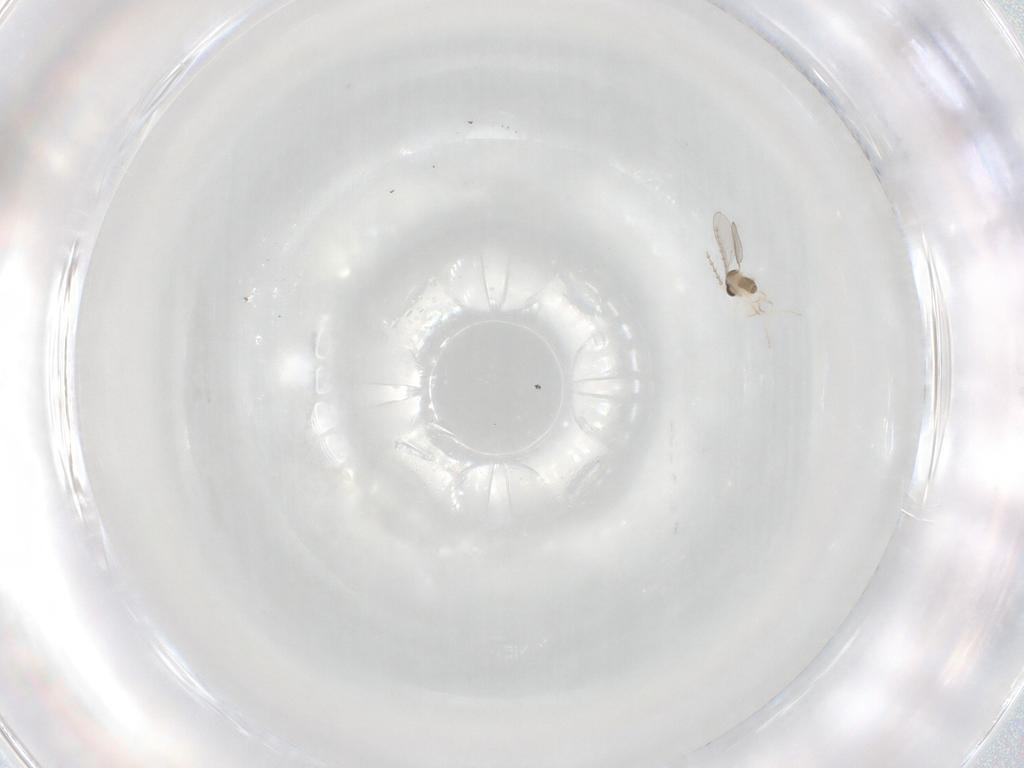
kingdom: Animalia
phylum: Arthropoda
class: Insecta
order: Diptera
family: Cecidomyiidae
